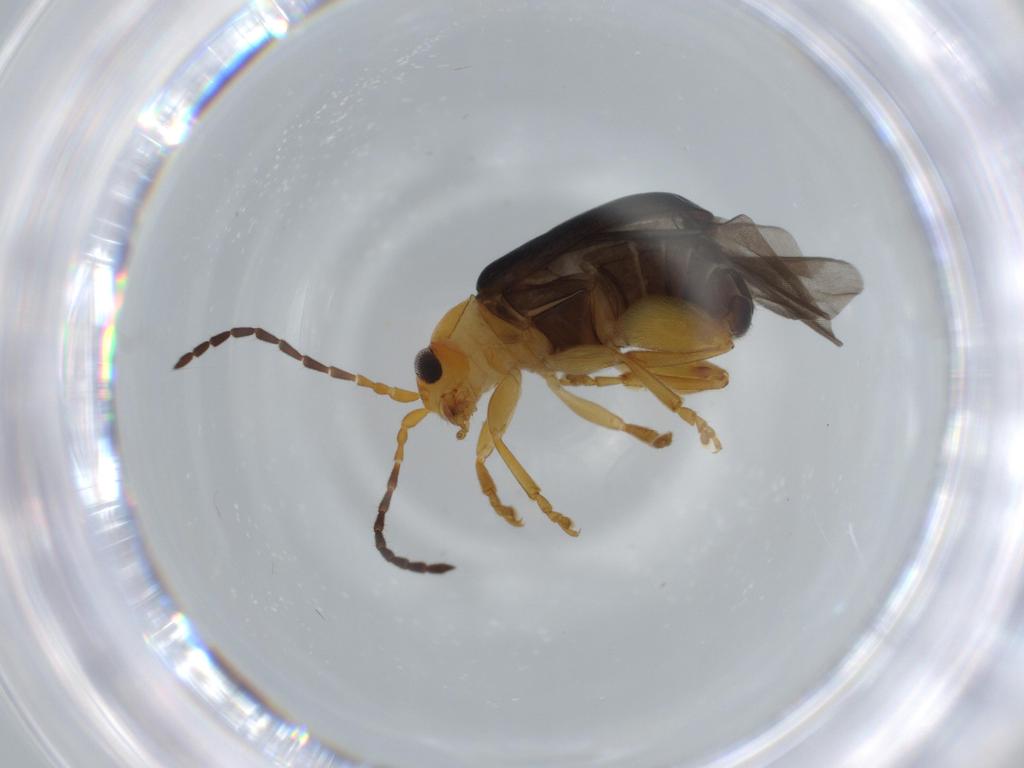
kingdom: Animalia
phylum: Arthropoda
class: Insecta
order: Coleoptera
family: Chrysomelidae
